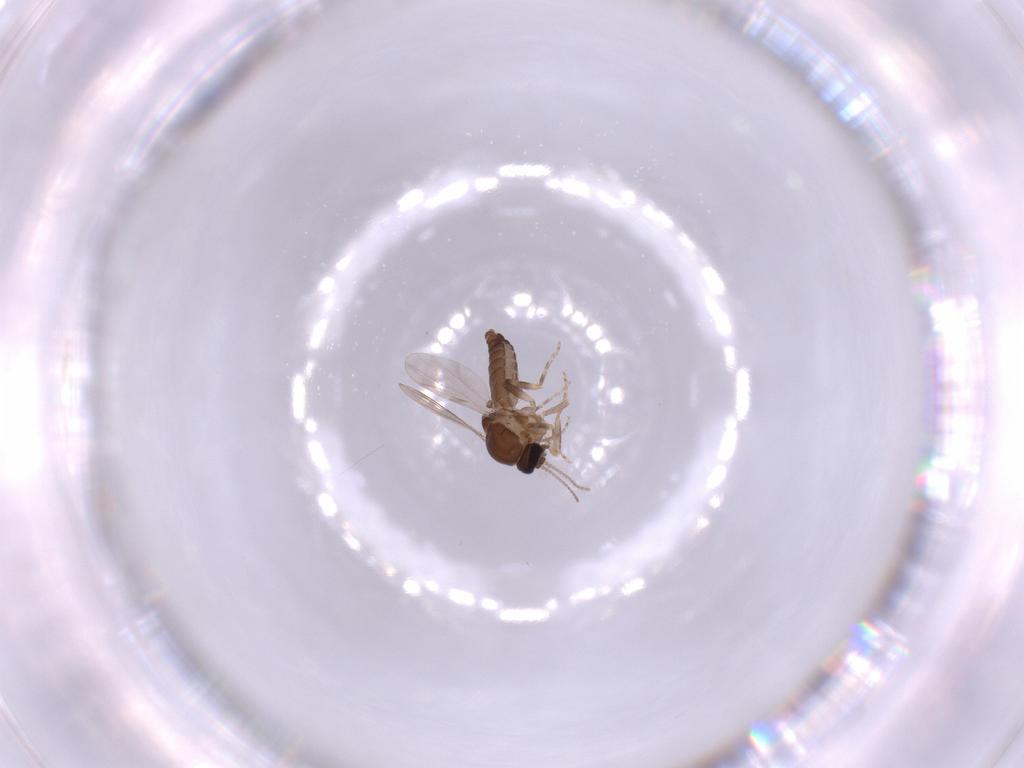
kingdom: Animalia
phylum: Arthropoda
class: Insecta
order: Diptera
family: Ceratopogonidae
